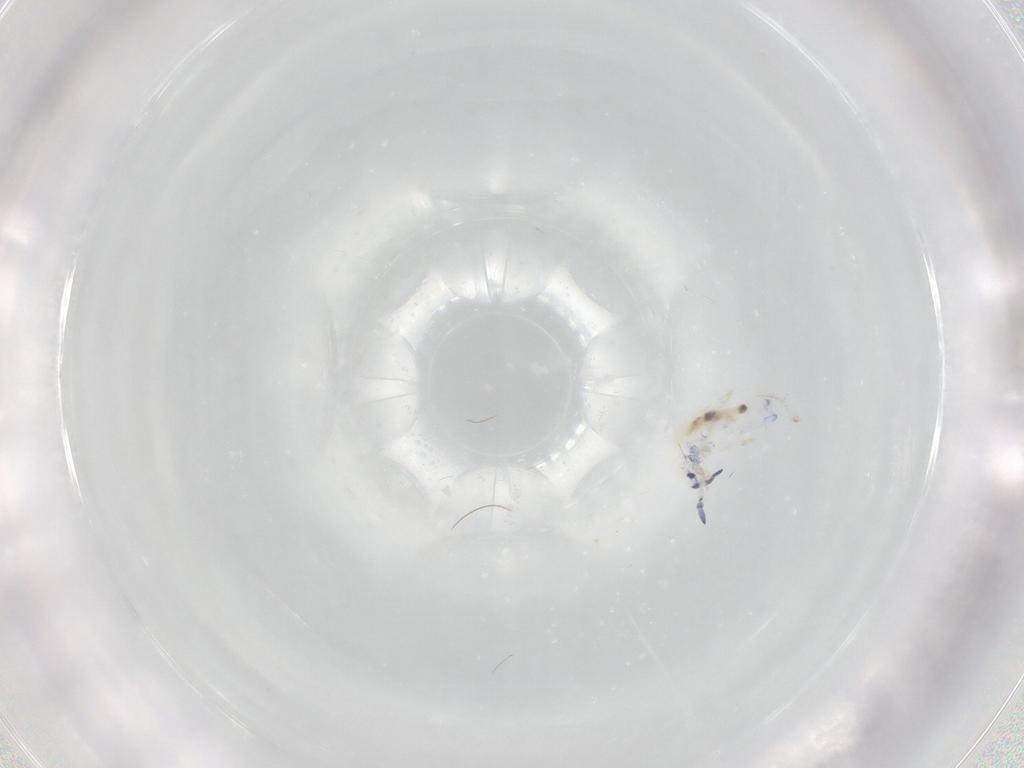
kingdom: Animalia
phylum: Arthropoda
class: Collembola
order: Entomobryomorpha
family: Entomobryidae
